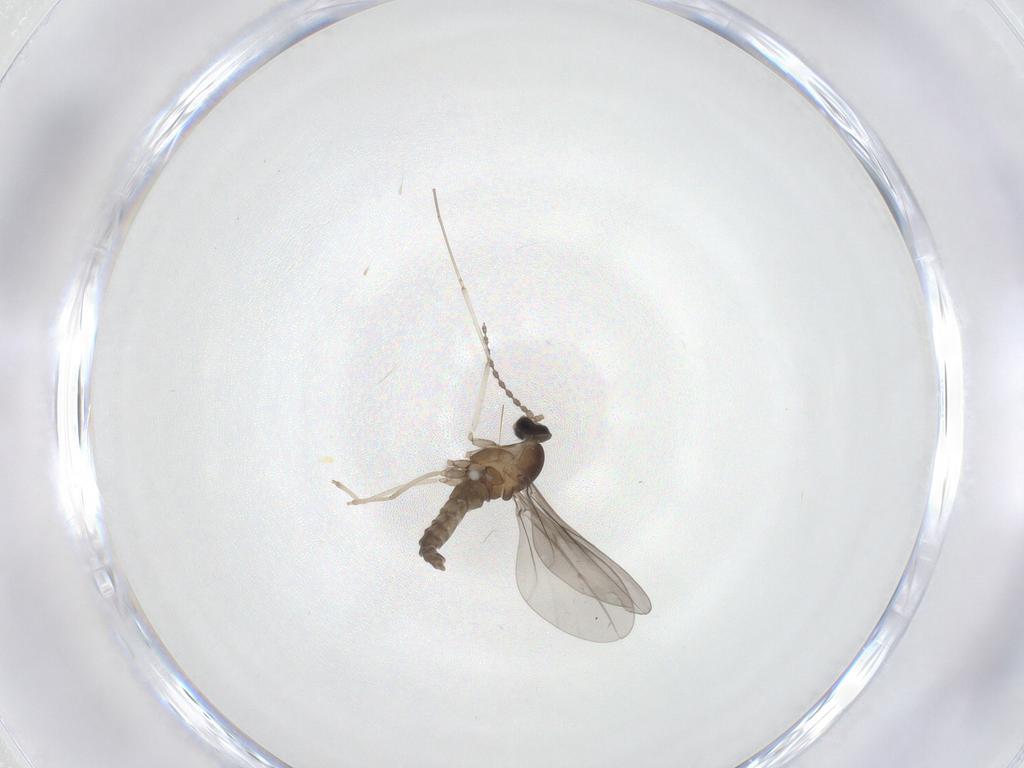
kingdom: Animalia
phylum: Arthropoda
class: Insecta
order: Diptera
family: Cecidomyiidae
